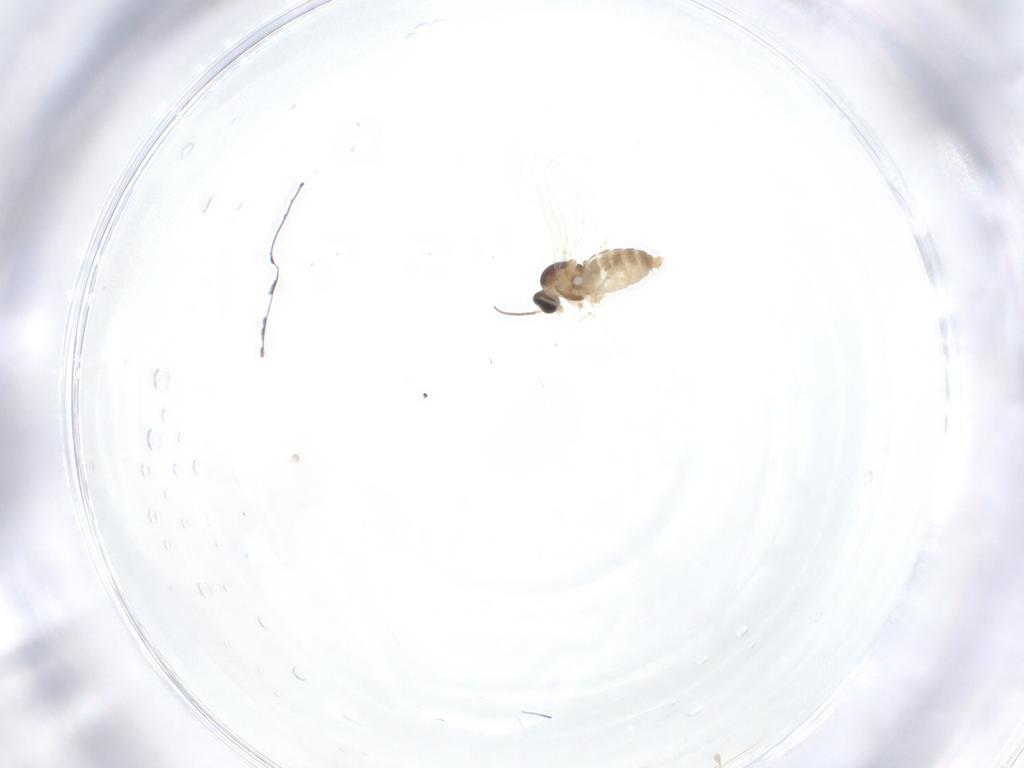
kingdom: Animalia
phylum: Arthropoda
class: Insecta
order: Diptera
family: Cecidomyiidae
